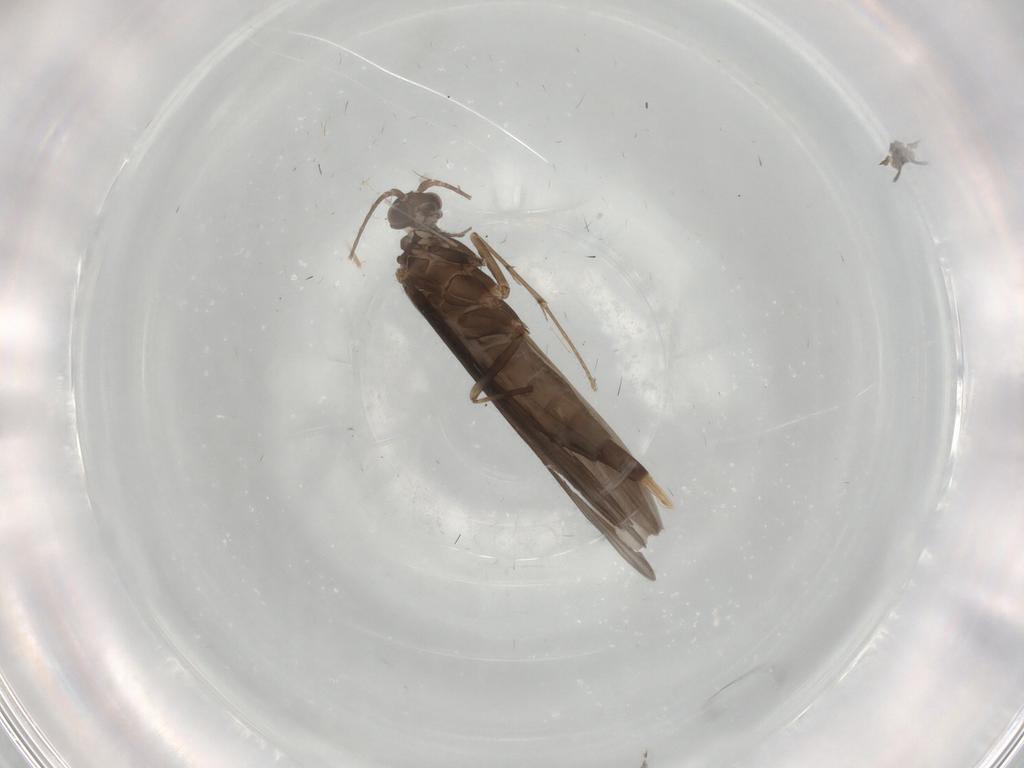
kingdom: Animalia
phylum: Arthropoda
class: Insecta
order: Trichoptera
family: Xiphocentronidae
